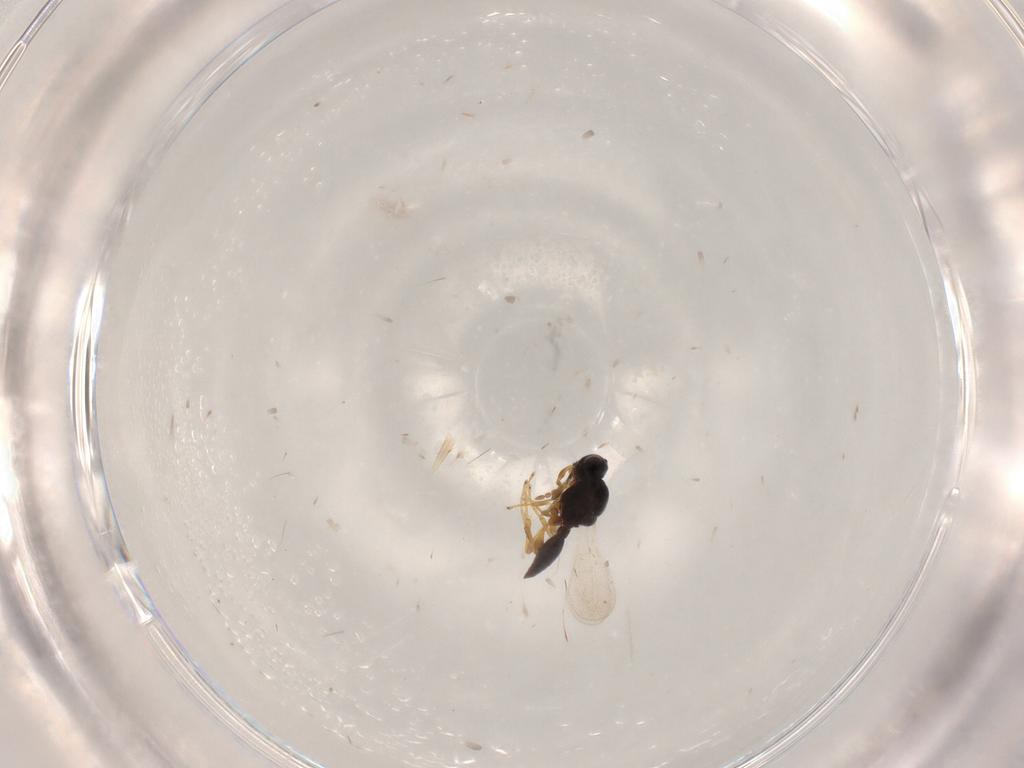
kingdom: Animalia
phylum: Arthropoda
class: Insecta
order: Hymenoptera
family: Platygastridae
